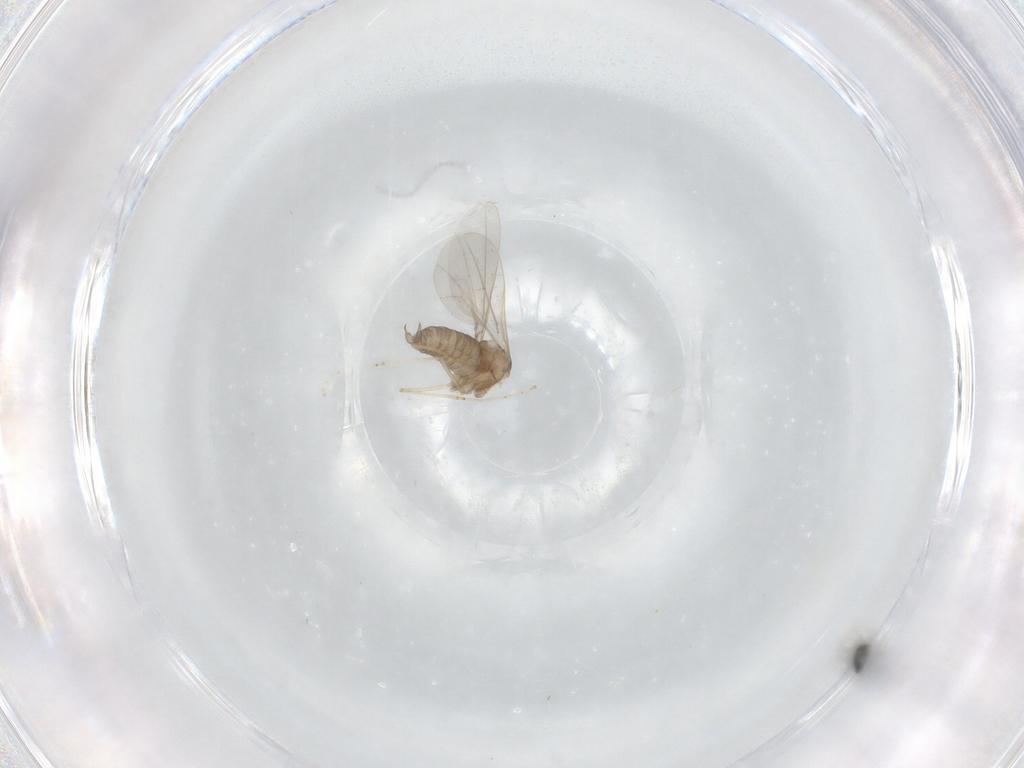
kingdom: Animalia
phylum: Arthropoda
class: Insecta
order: Diptera
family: Cecidomyiidae
